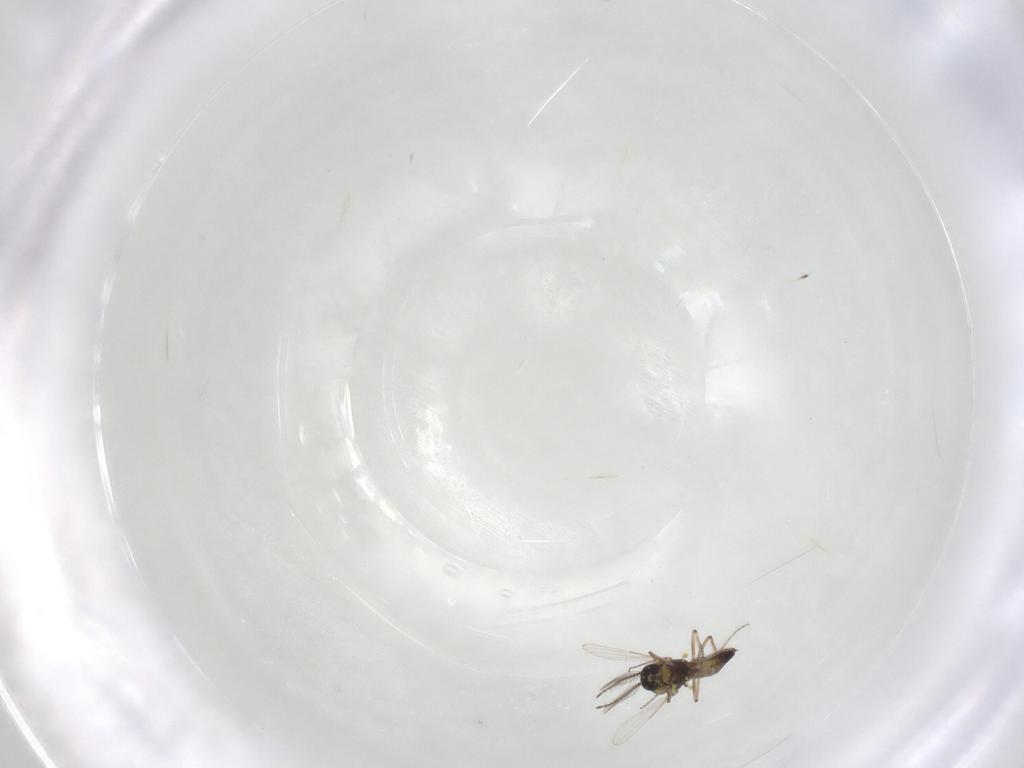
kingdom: Animalia
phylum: Arthropoda
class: Insecta
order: Diptera
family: Ceratopogonidae
